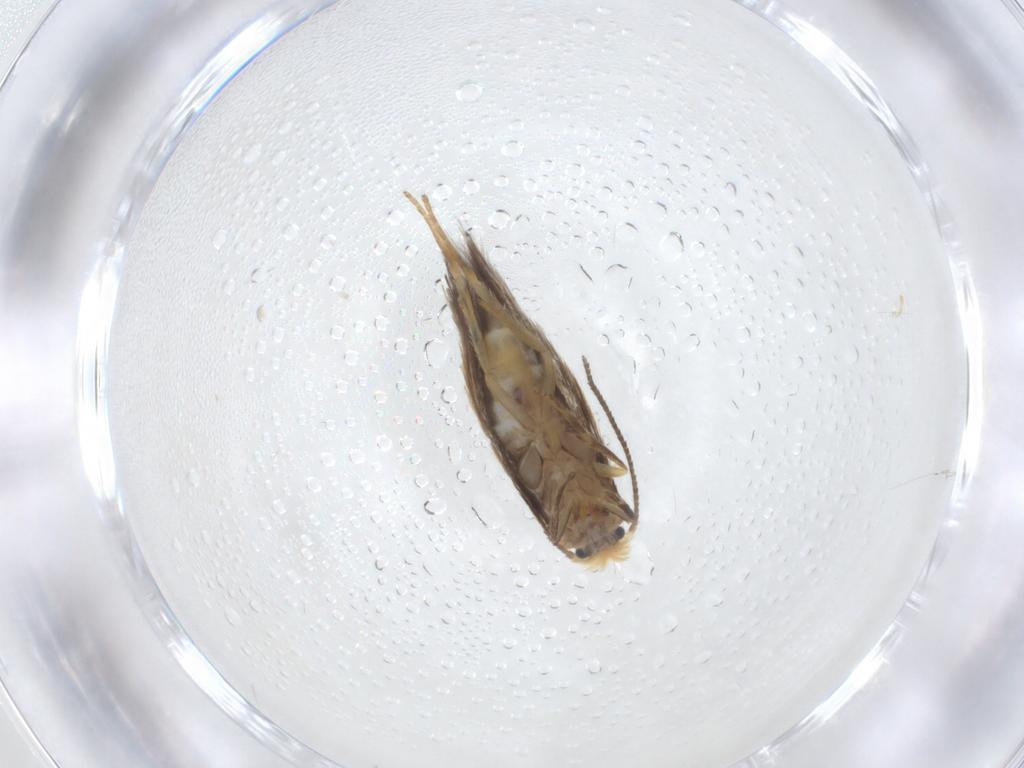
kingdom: Animalia
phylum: Arthropoda
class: Insecta
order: Lepidoptera
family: Nepticulidae
